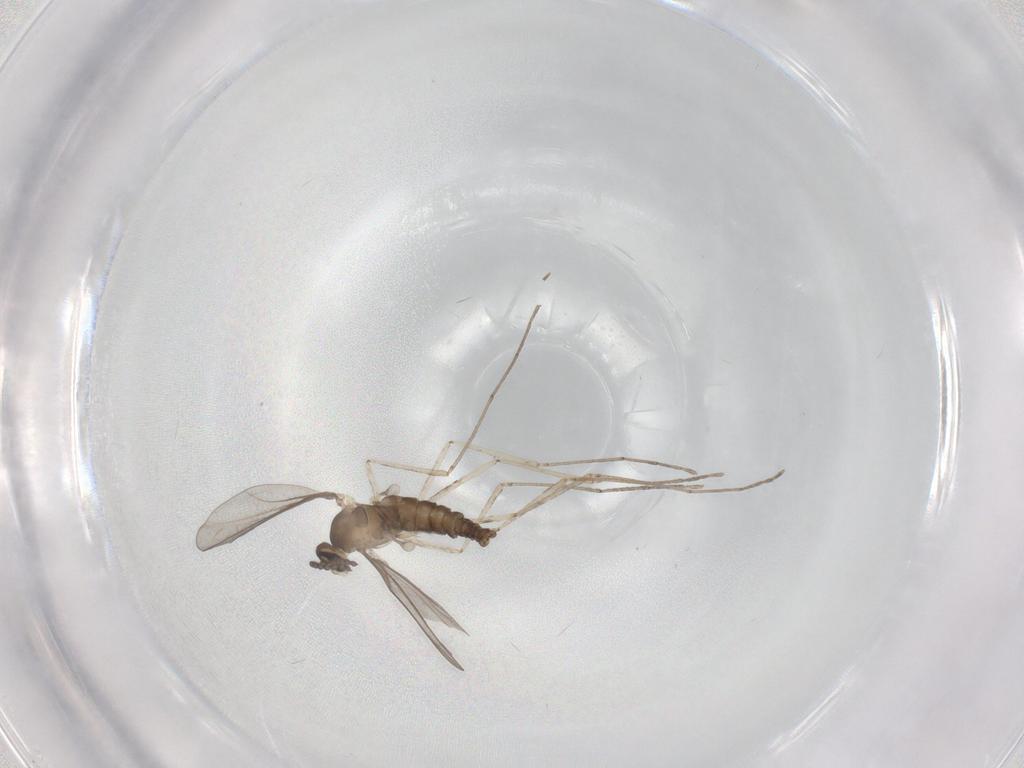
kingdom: Animalia
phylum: Arthropoda
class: Insecta
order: Diptera
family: Cecidomyiidae
